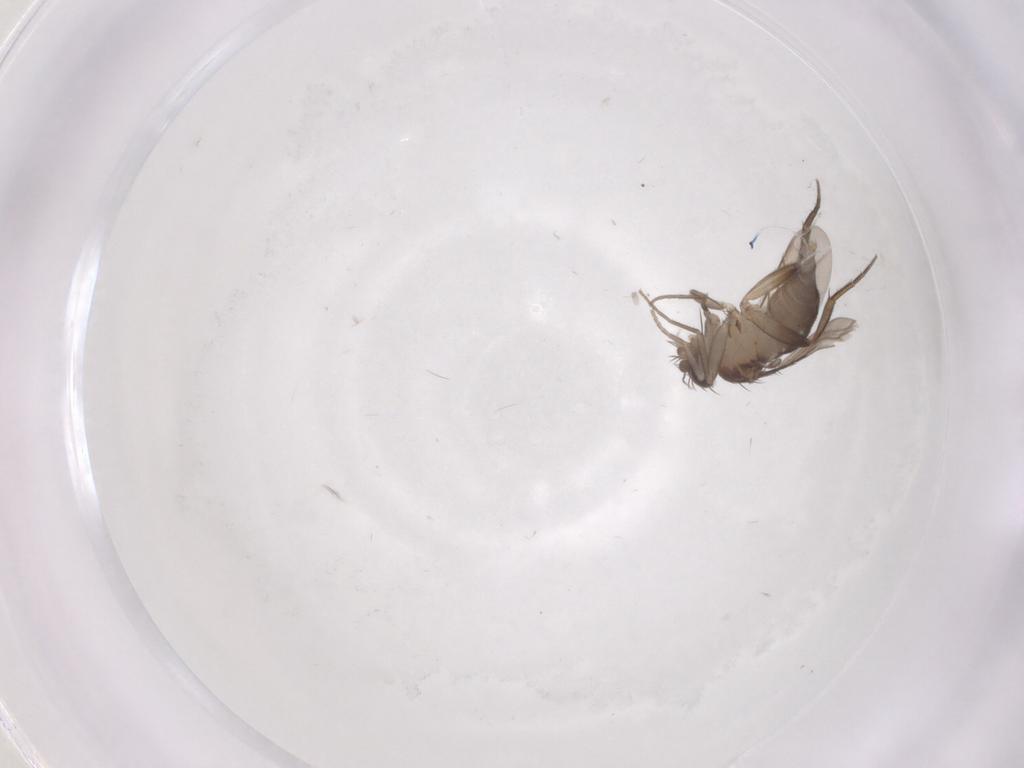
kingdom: Animalia
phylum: Arthropoda
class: Insecta
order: Diptera
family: Phoridae
